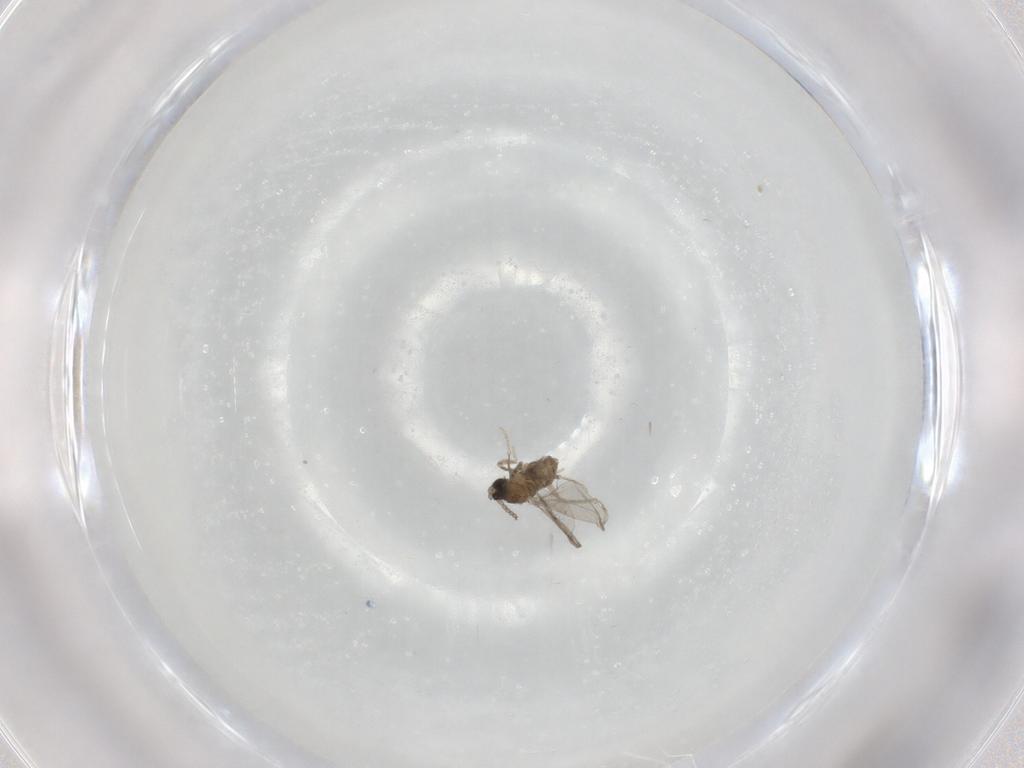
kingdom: Animalia
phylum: Arthropoda
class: Insecta
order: Diptera
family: Cecidomyiidae
